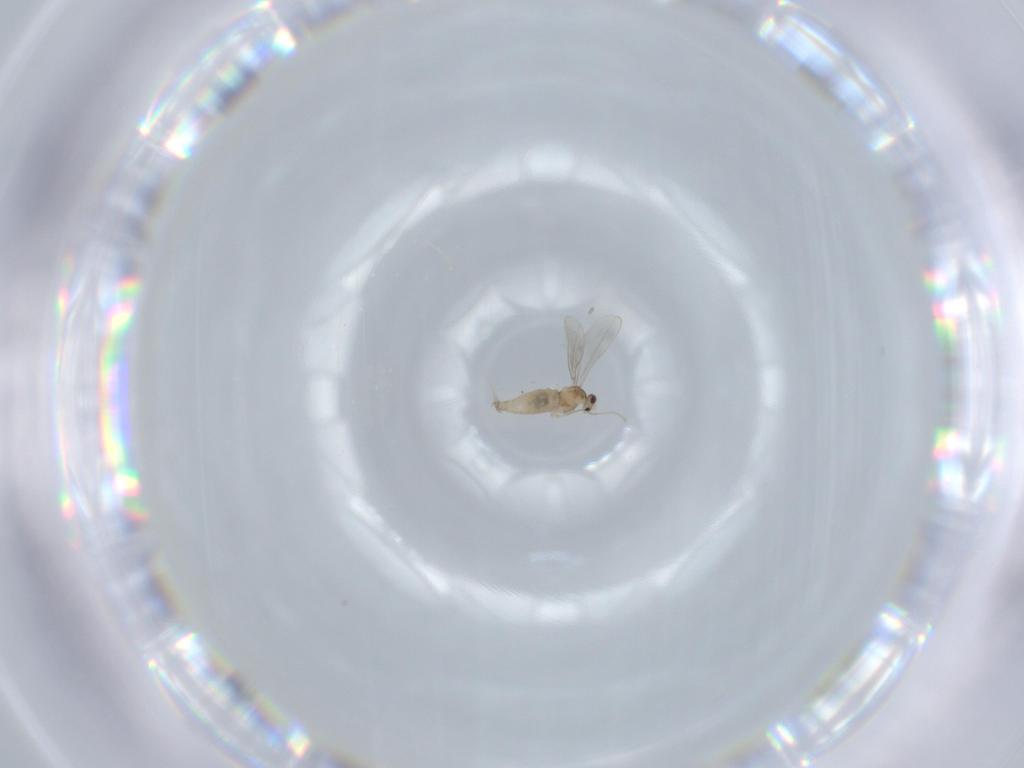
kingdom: Animalia
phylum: Arthropoda
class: Insecta
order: Diptera
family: Cecidomyiidae
